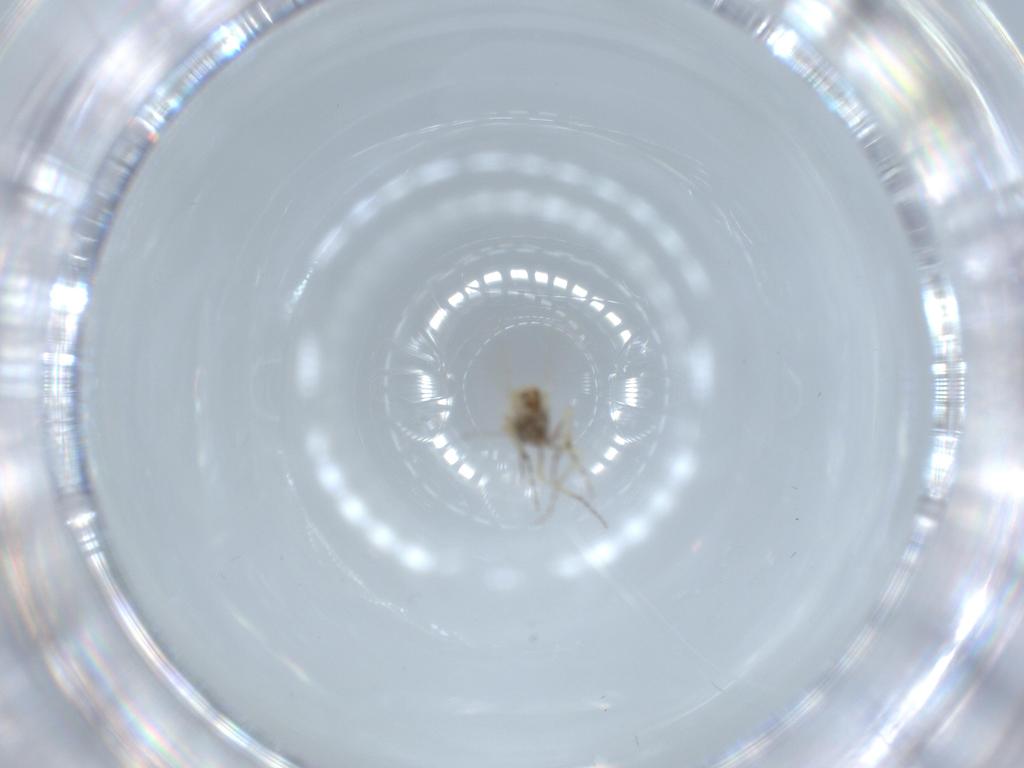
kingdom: Animalia
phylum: Arthropoda
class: Insecta
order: Diptera
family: Ceratopogonidae
